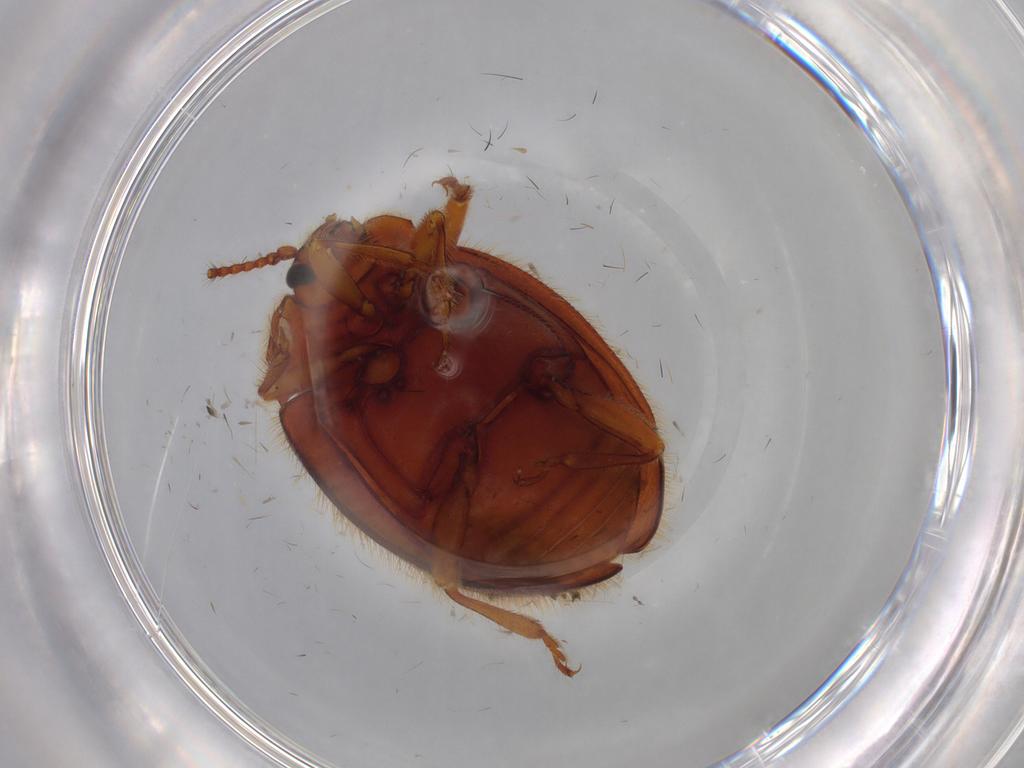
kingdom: Animalia
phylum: Arthropoda
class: Insecta
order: Coleoptera
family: Endomychidae
